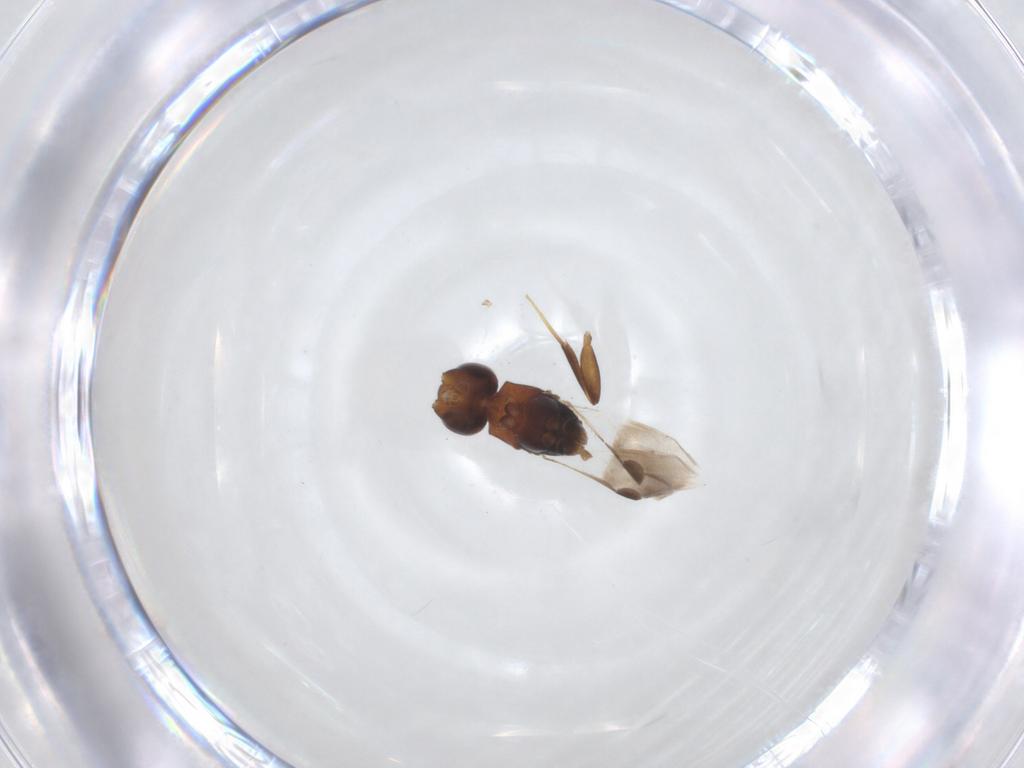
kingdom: Animalia
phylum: Arthropoda
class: Insecta
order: Hymenoptera
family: Megaspilidae
